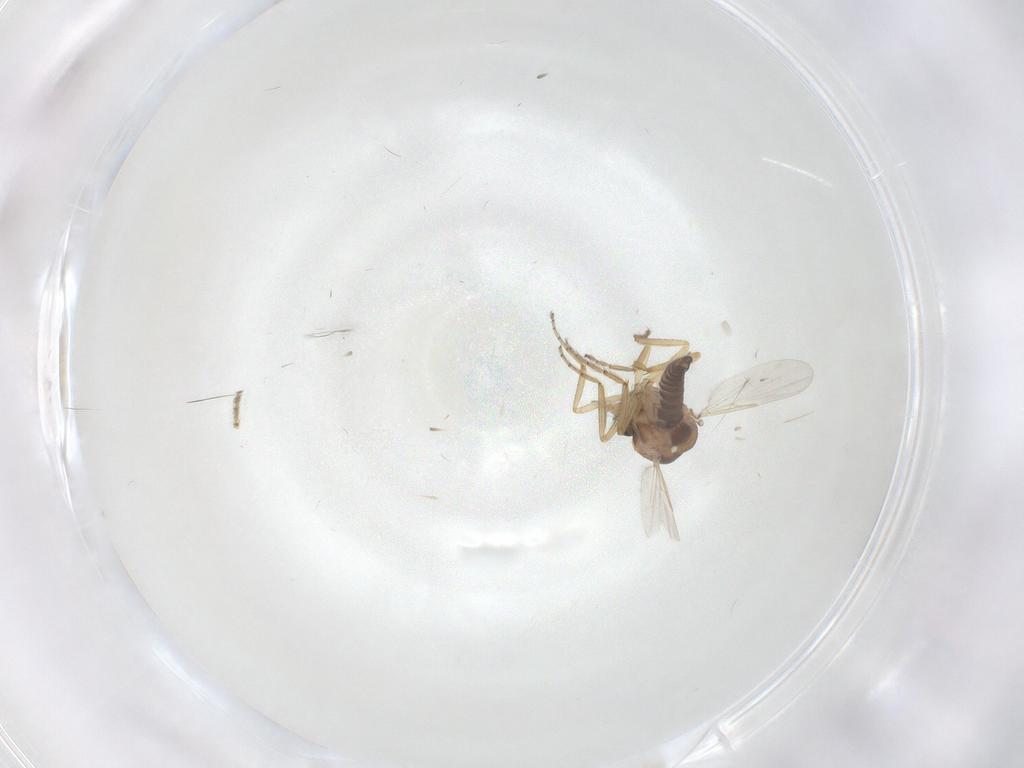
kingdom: Animalia
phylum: Arthropoda
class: Insecta
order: Diptera
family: Ceratopogonidae
